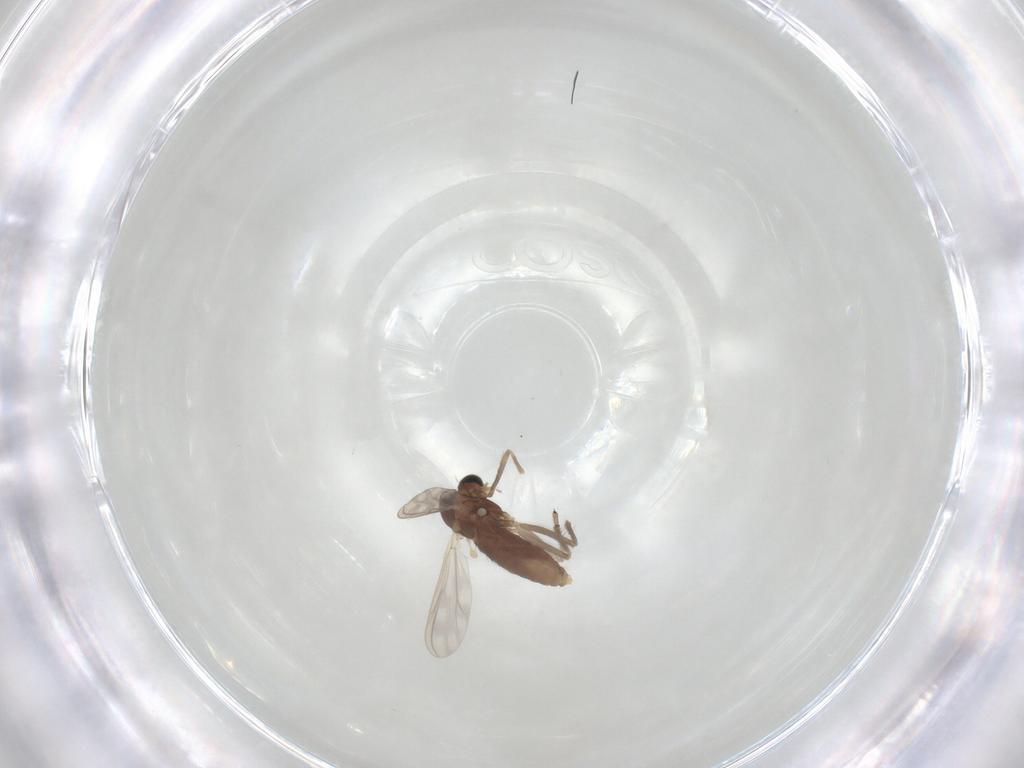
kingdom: Animalia
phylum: Arthropoda
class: Insecta
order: Diptera
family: Chironomidae
